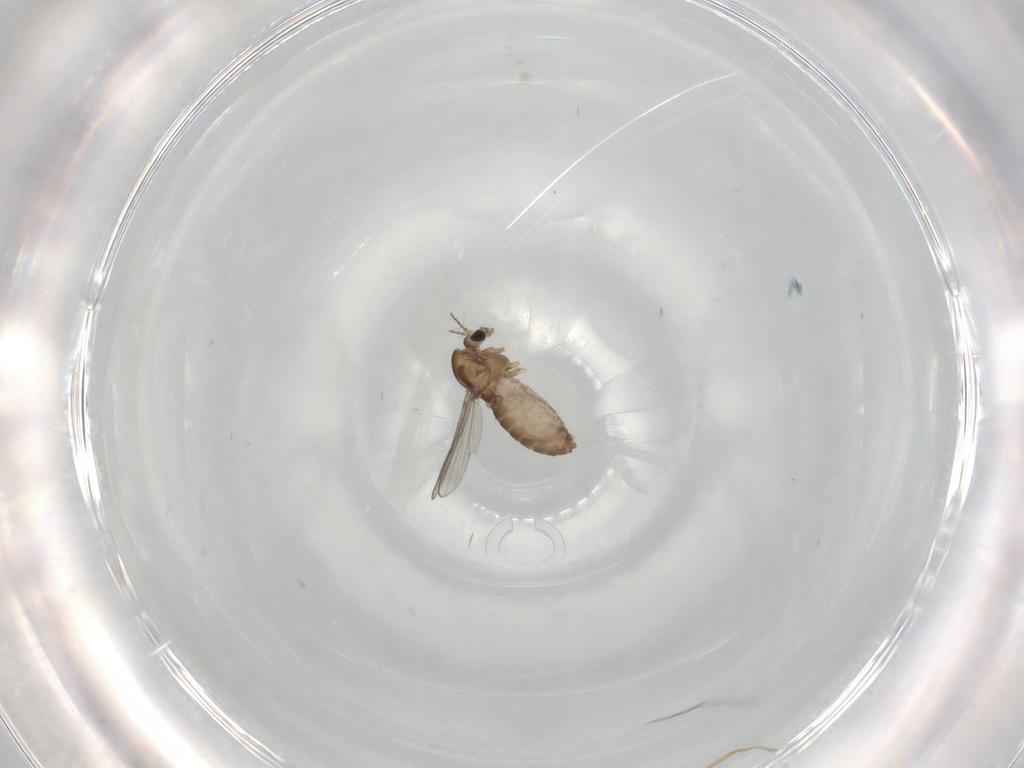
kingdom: Animalia
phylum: Arthropoda
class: Insecta
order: Diptera
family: Chironomidae
